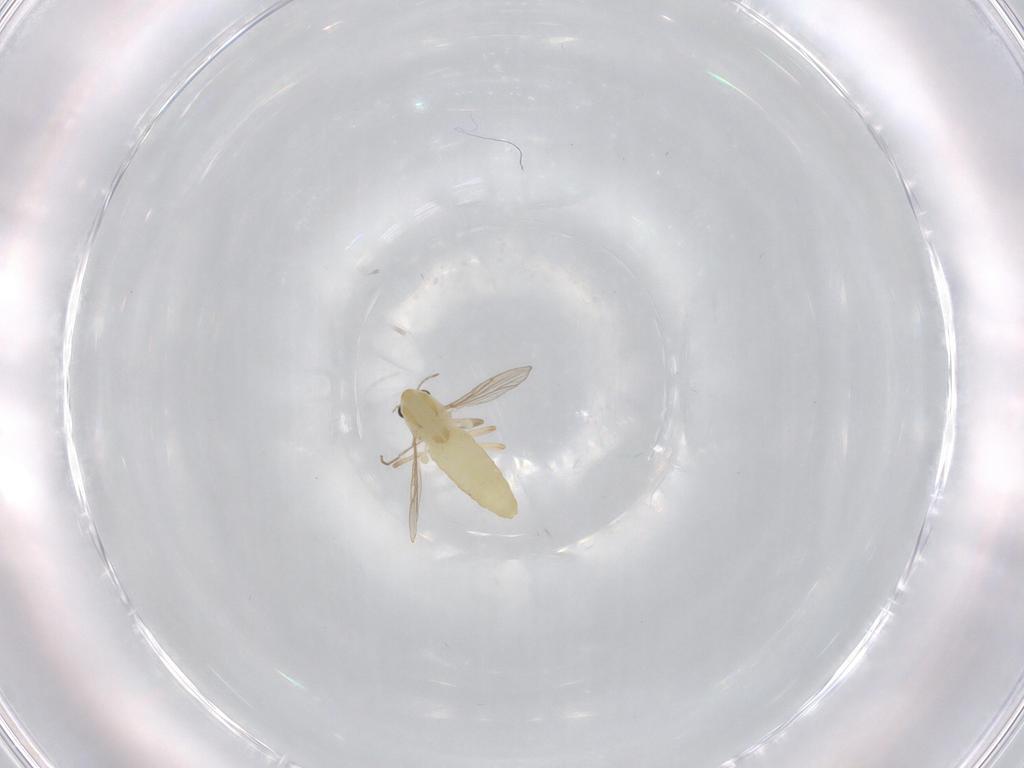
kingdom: Animalia
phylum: Arthropoda
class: Insecta
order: Diptera
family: Chironomidae
